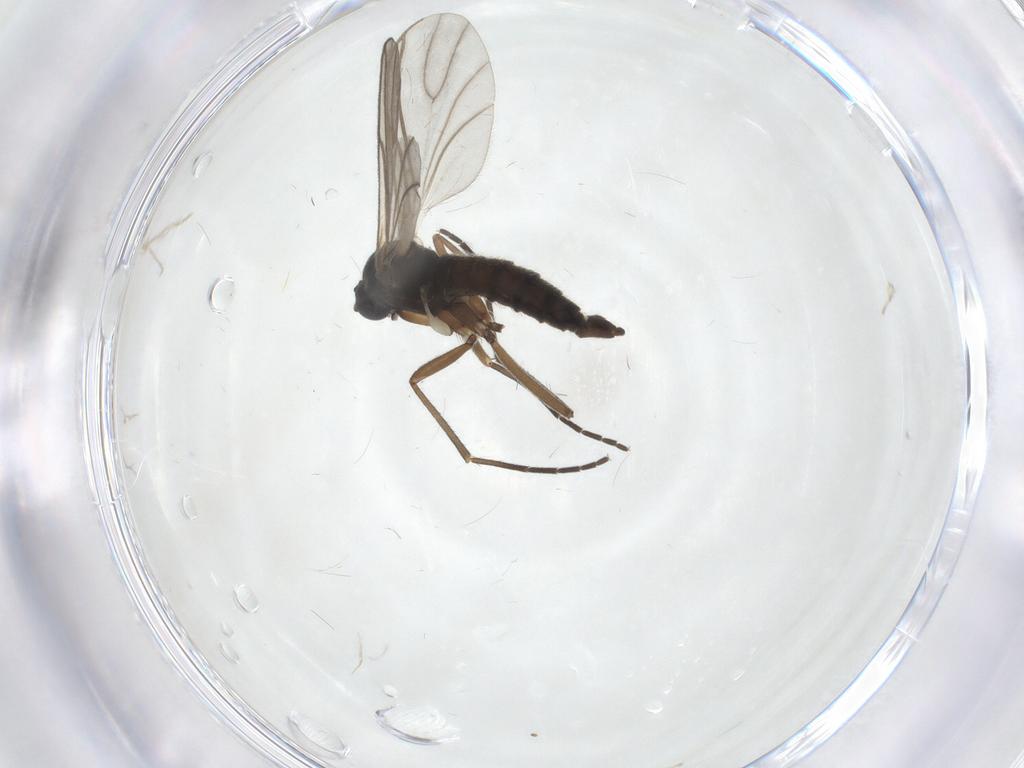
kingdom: Animalia
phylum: Arthropoda
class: Insecta
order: Diptera
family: Sciaridae
